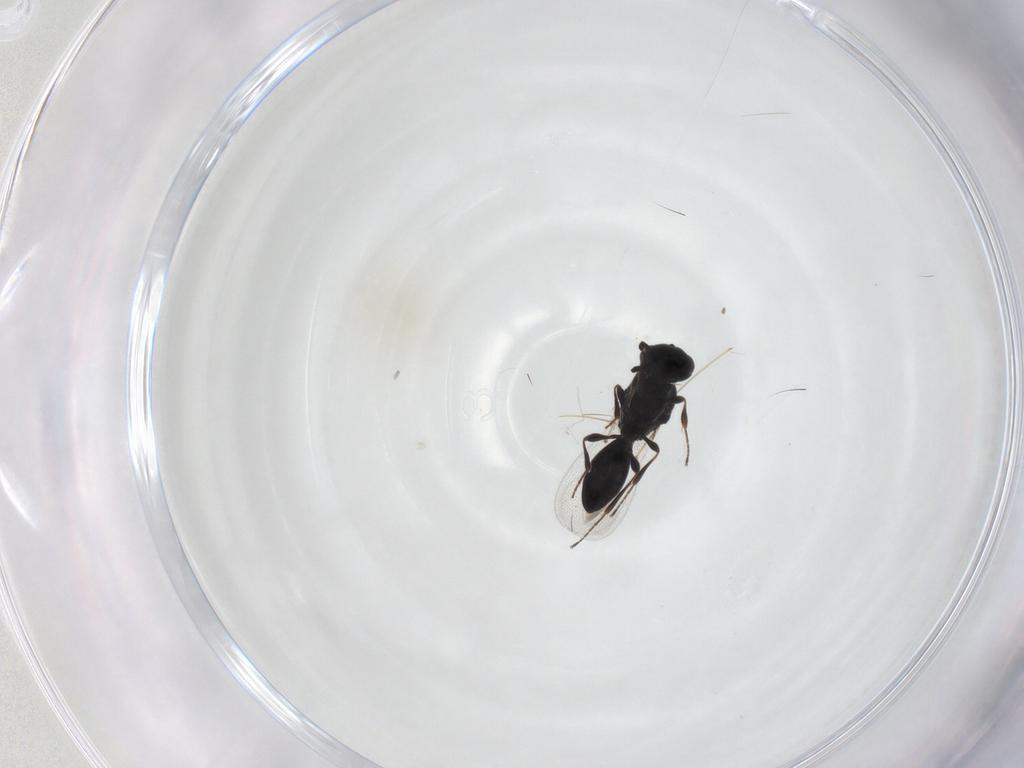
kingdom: Animalia
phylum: Arthropoda
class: Insecta
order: Hymenoptera
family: Platygastridae
